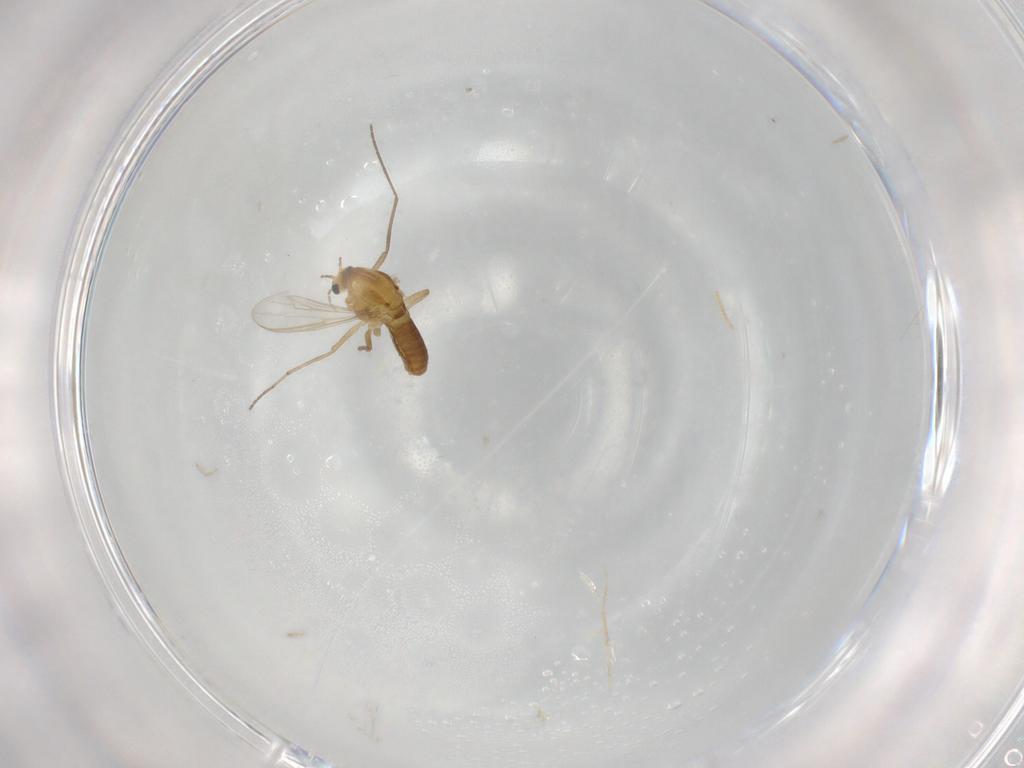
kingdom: Animalia
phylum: Arthropoda
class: Insecta
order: Diptera
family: Chironomidae
